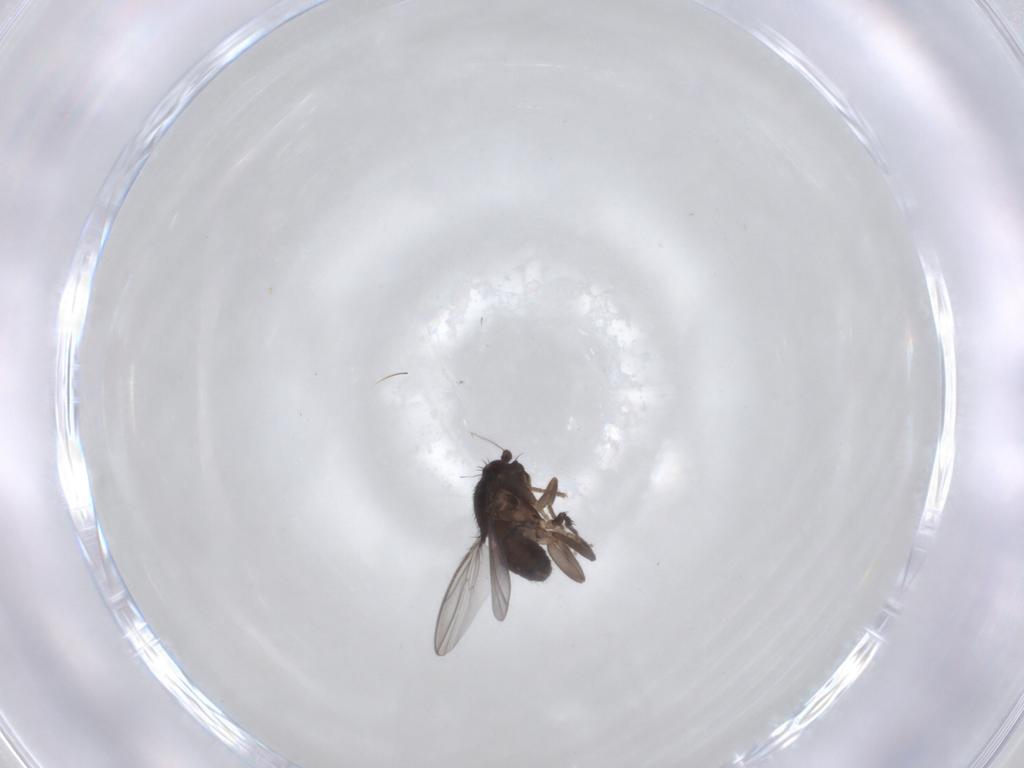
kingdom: Animalia
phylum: Arthropoda
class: Insecta
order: Diptera
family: Sphaeroceridae
